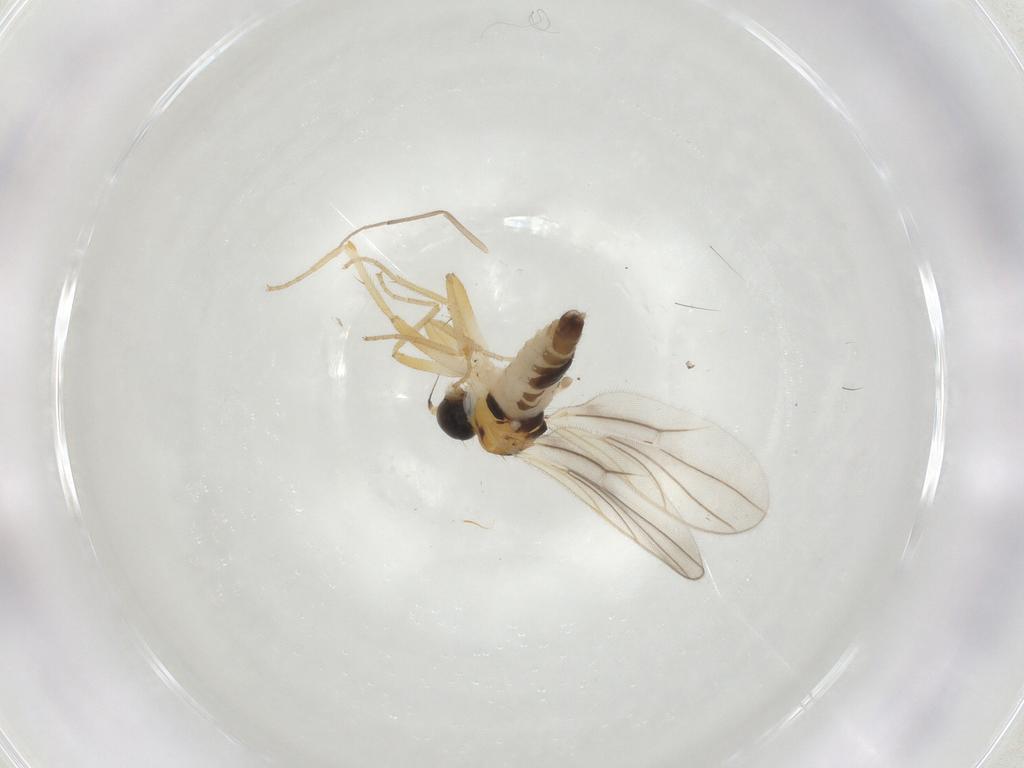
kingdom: Animalia
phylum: Arthropoda
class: Insecta
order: Diptera
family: Hybotidae
